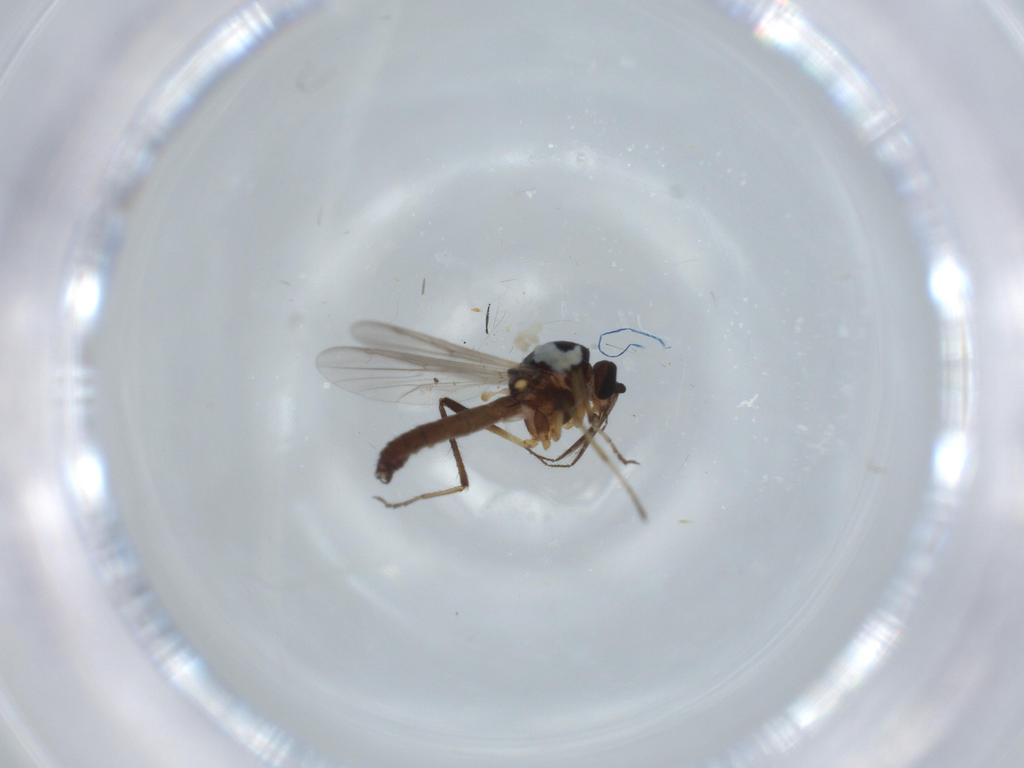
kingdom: Animalia
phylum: Arthropoda
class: Insecta
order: Diptera
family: Ceratopogonidae
